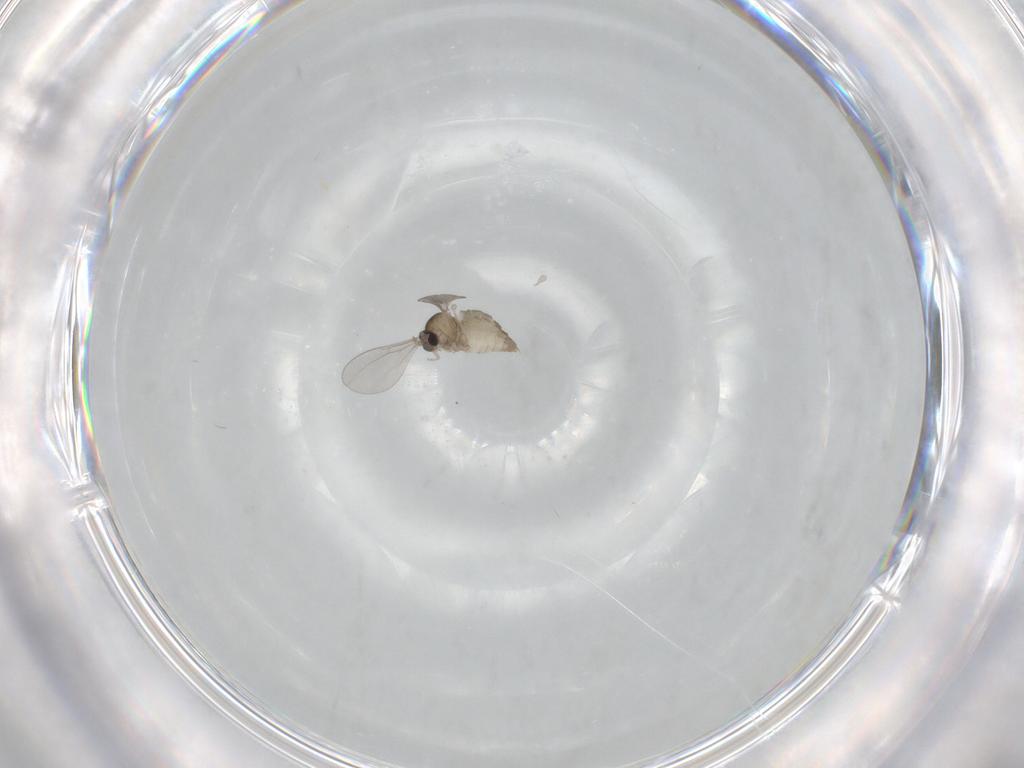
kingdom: Animalia
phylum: Arthropoda
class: Insecta
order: Diptera
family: Cecidomyiidae
